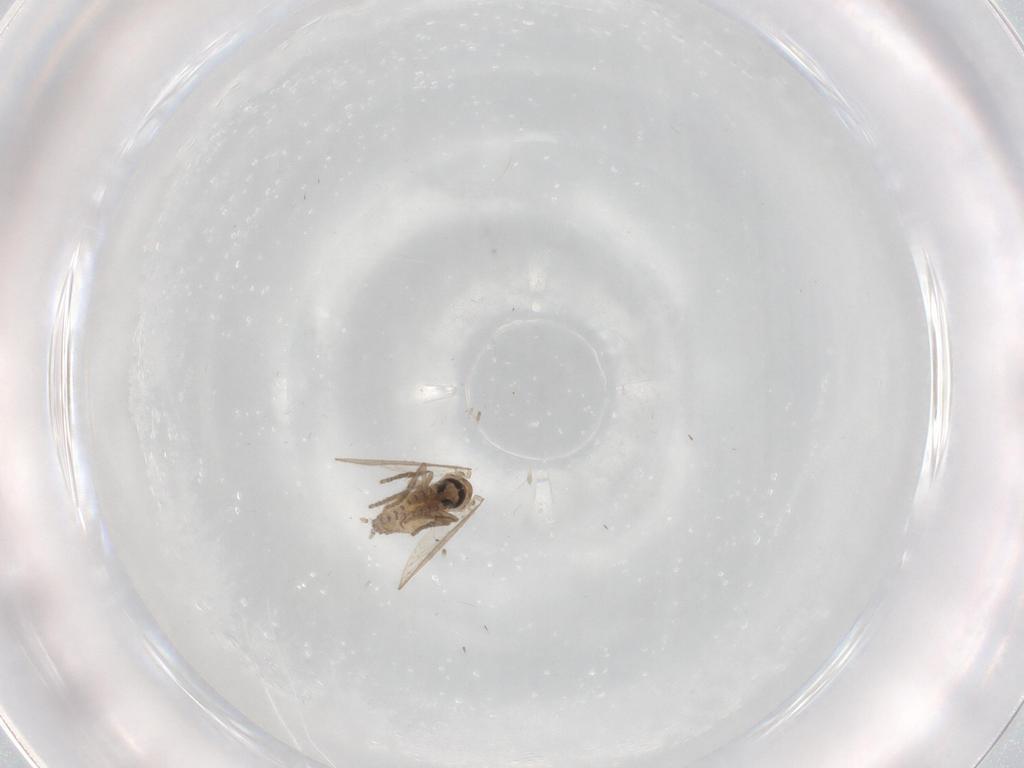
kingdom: Animalia
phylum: Arthropoda
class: Insecta
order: Diptera
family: Psychodidae
